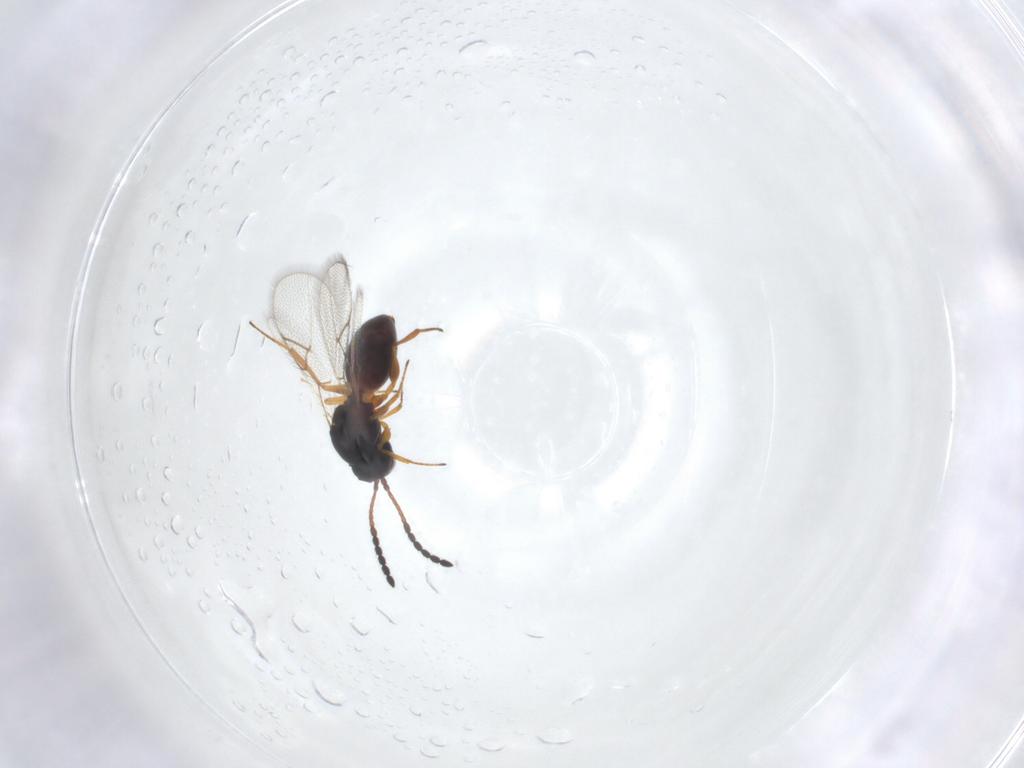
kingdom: Animalia
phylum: Arthropoda
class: Insecta
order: Hymenoptera
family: Figitidae
